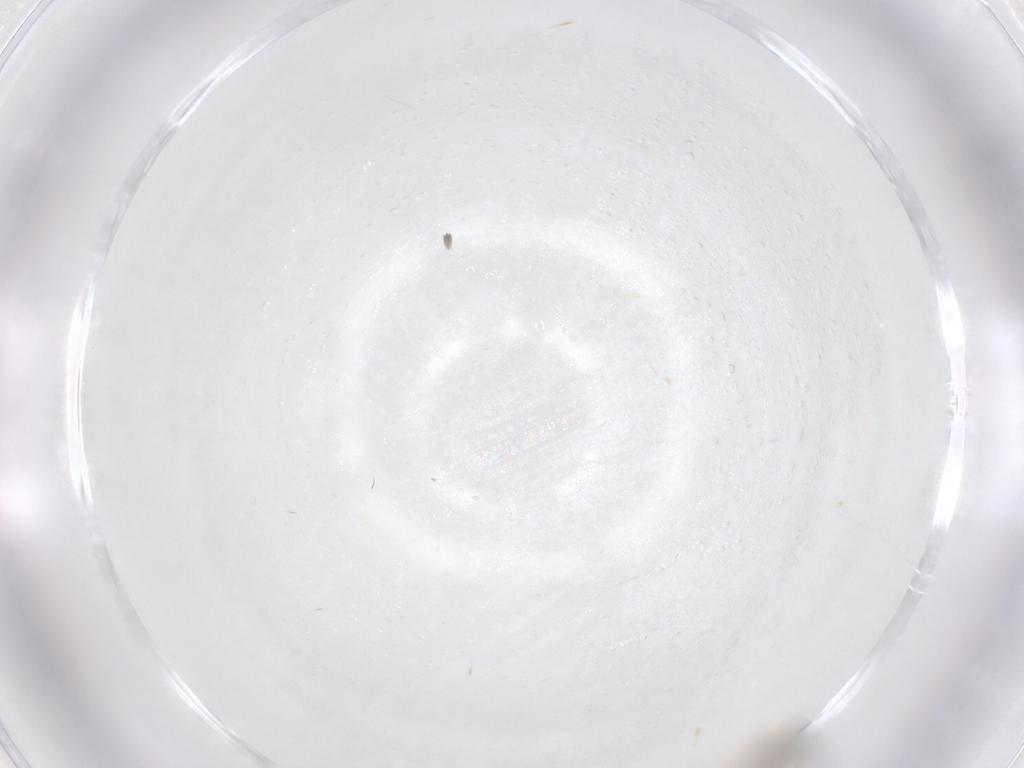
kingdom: Animalia
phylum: Arthropoda
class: Insecta
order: Diptera
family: Cecidomyiidae
